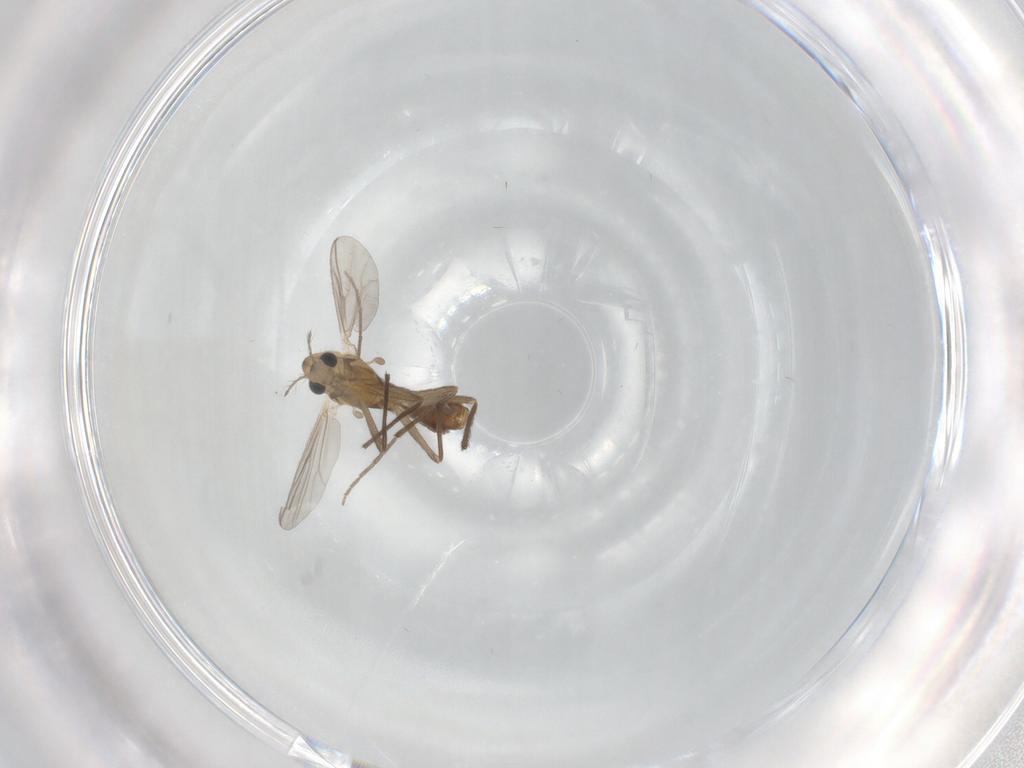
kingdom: Animalia
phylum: Arthropoda
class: Insecta
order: Diptera
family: Chironomidae
